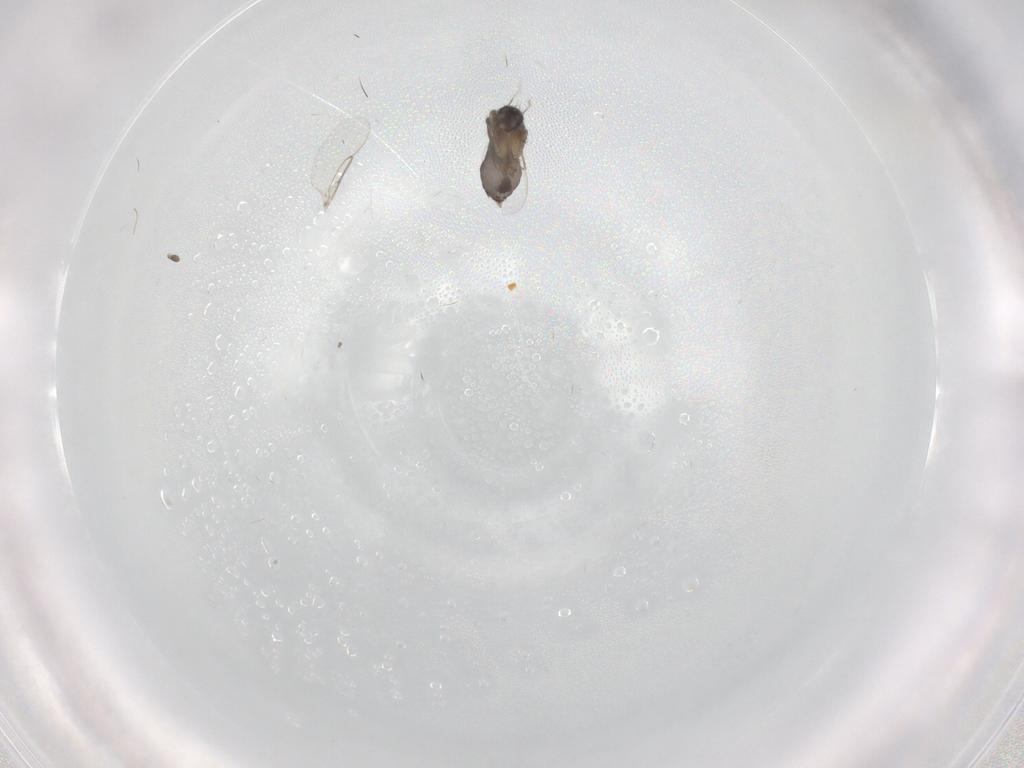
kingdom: Animalia
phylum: Arthropoda
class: Insecta
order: Diptera
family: Phoridae
